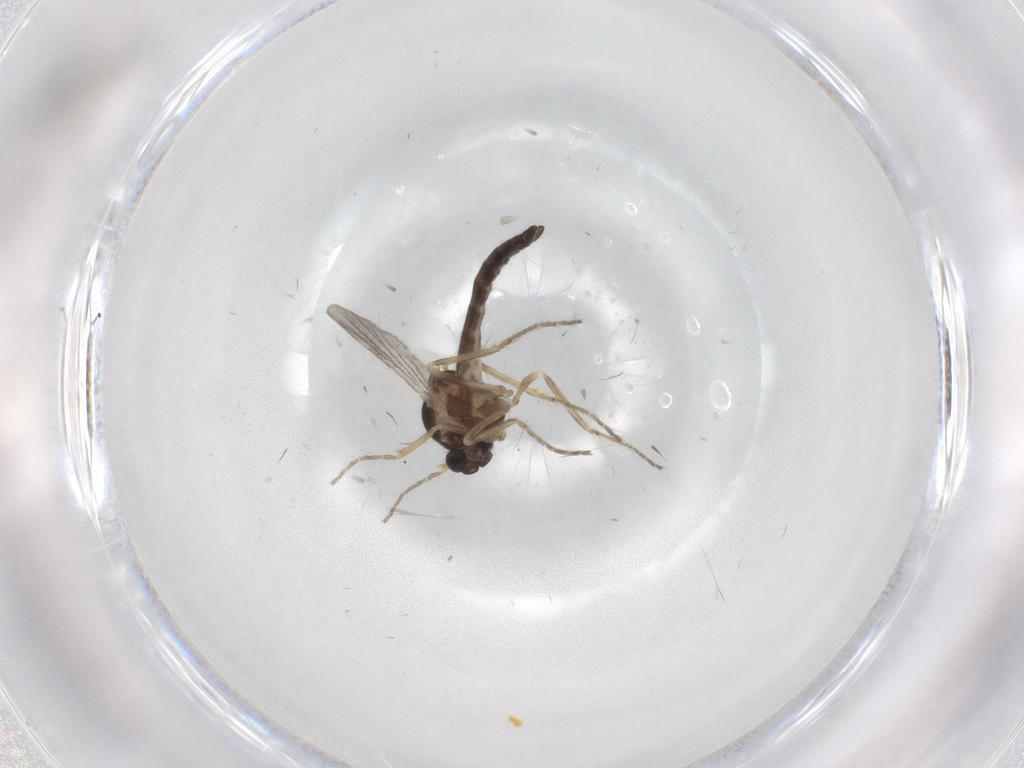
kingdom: Animalia
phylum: Arthropoda
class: Insecta
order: Diptera
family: Ceratopogonidae
